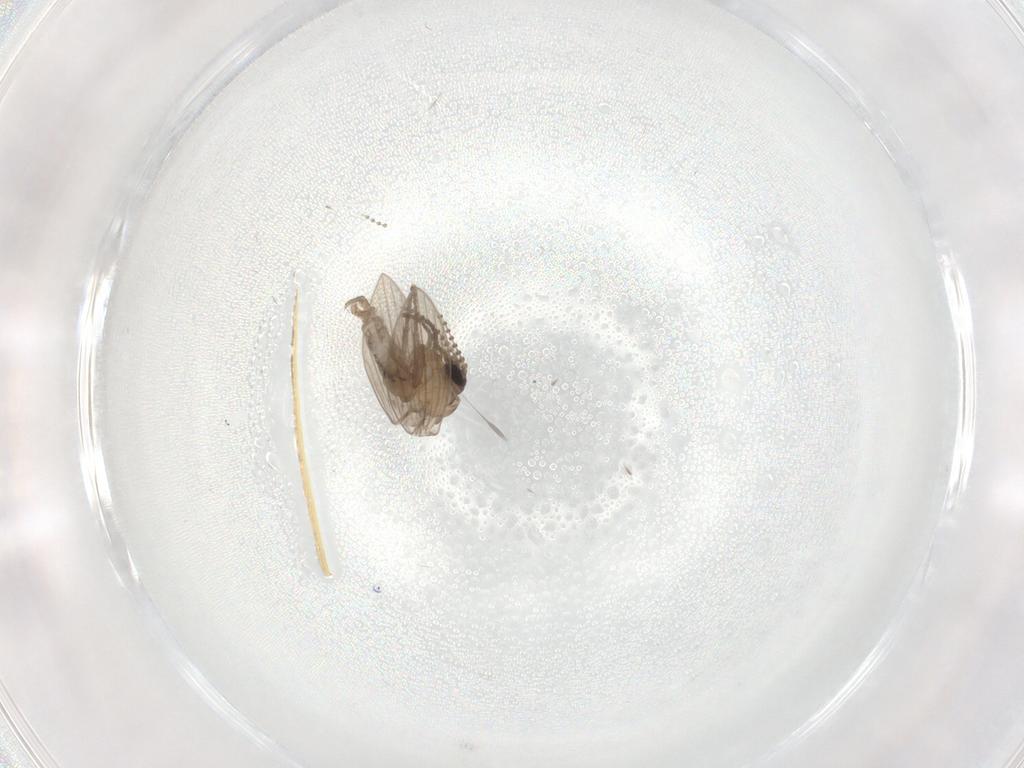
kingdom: Animalia
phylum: Arthropoda
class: Insecta
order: Diptera
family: Psychodidae
